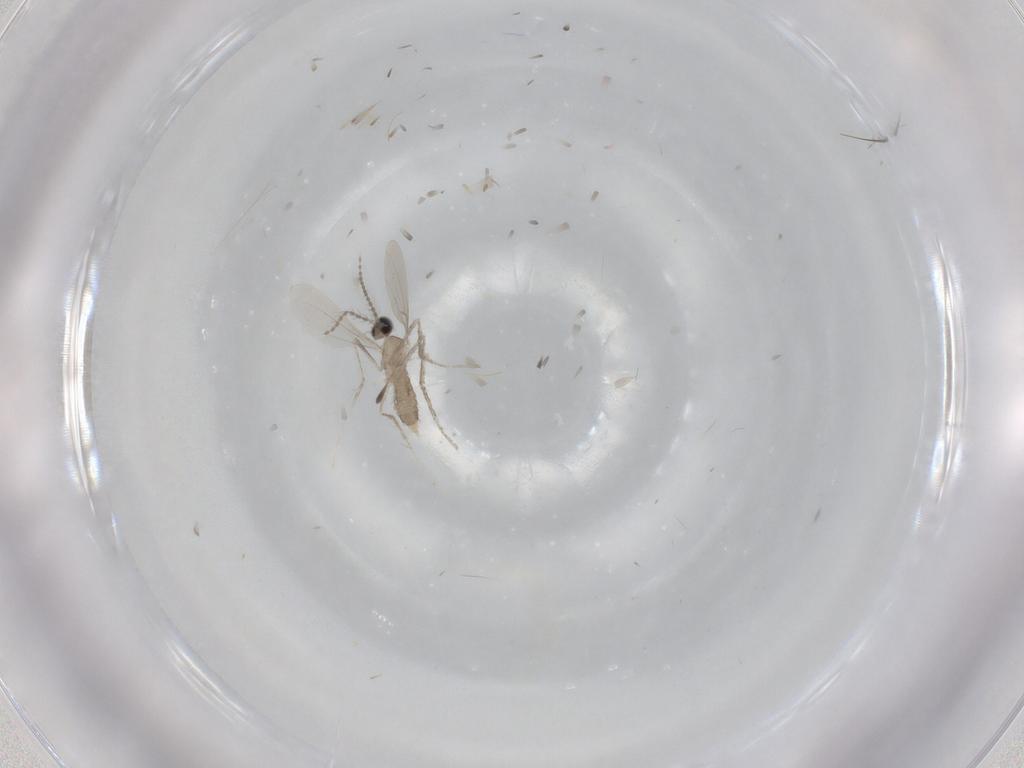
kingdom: Animalia
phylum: Arthropoda
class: Insecta
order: Diptera
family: Cecidomyiidae
